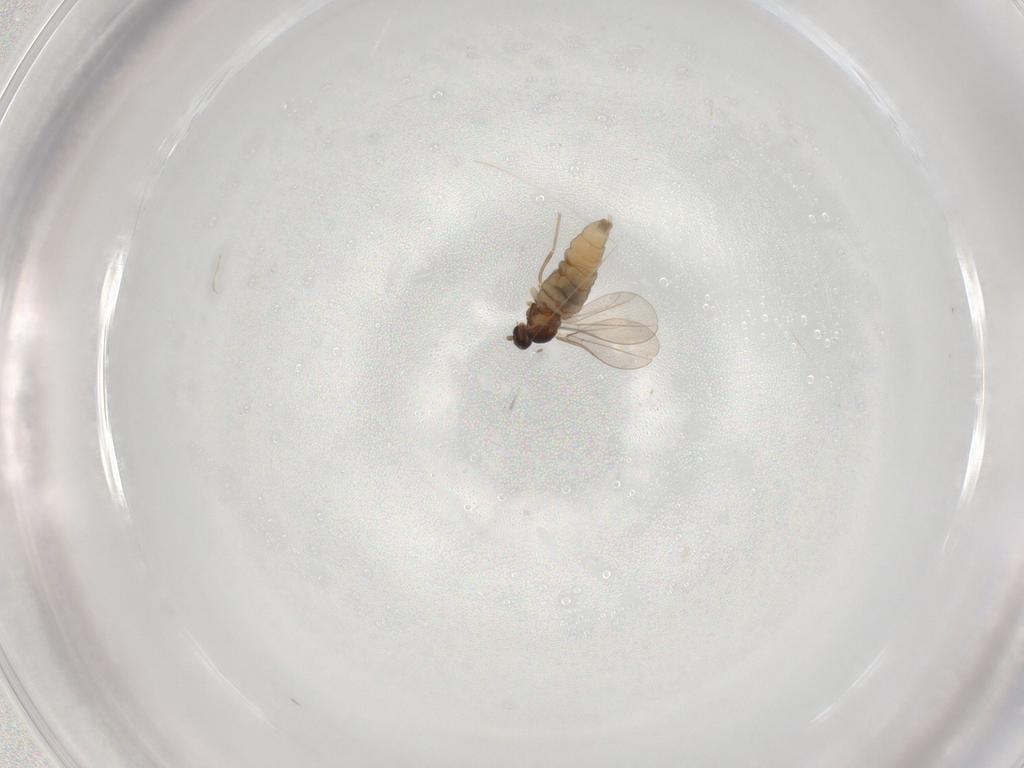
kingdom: Animalia
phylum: Arthropoda
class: Insecta
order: Diptera
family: Cecidomyiidae
